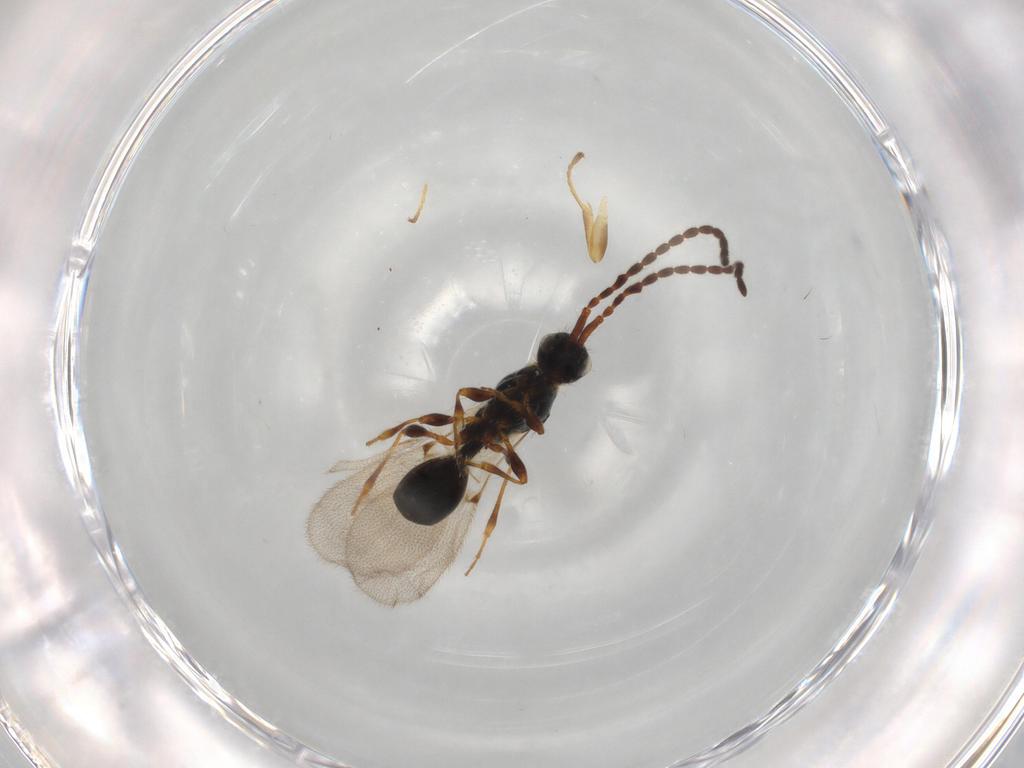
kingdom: Animalia
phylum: Arthropoda
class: Insecta
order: Hymenoptera
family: Diapriidae
